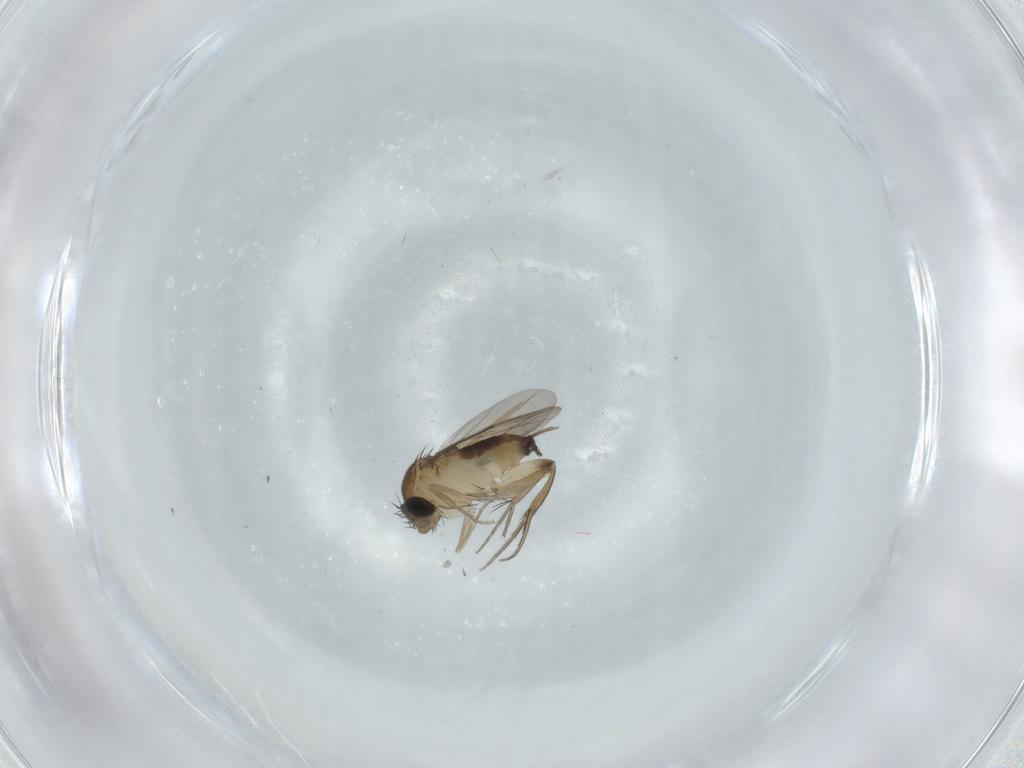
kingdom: Animalia
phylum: Arthropoda
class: Insecta
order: Diptera
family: Phoridae
